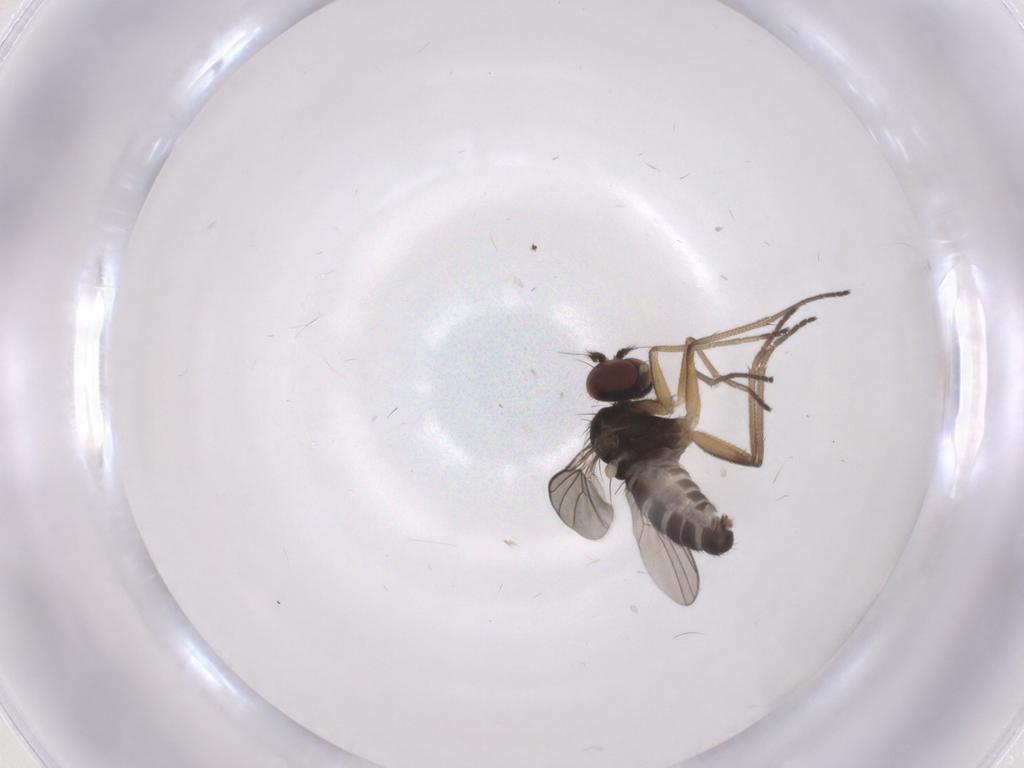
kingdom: Animalia
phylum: Arthropoda
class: Insecta
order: Diptera
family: Dolichopodidae
